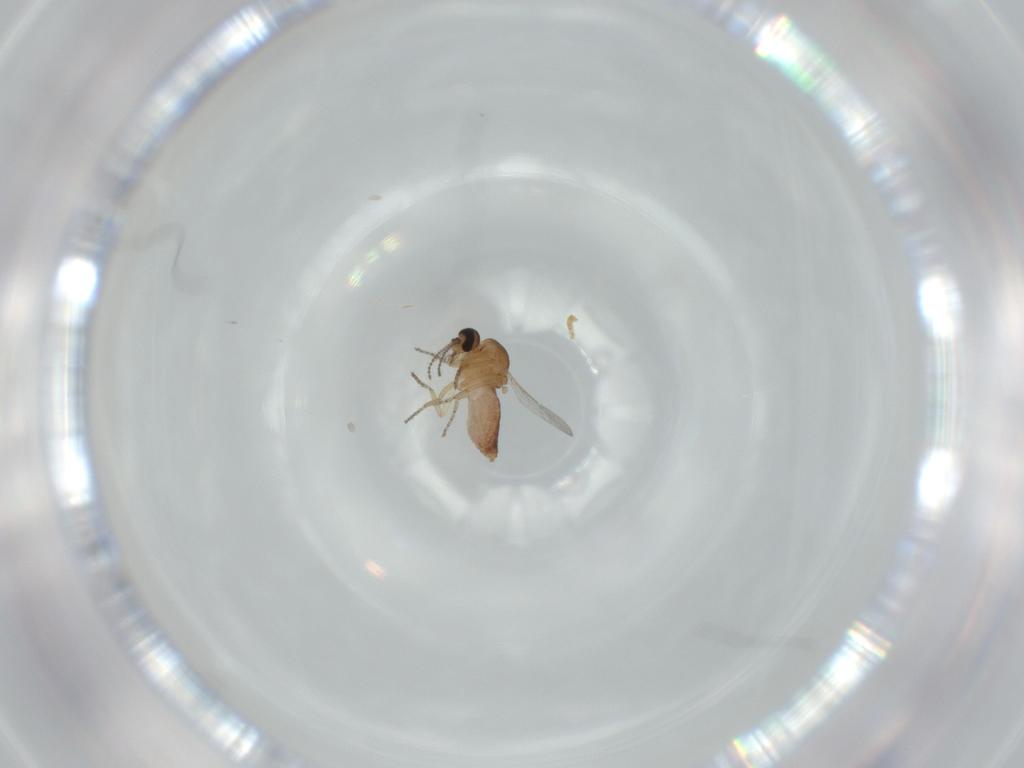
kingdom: Animalia
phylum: Arthropoda
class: Insecta
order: Diptera
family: Ceratopogonidae
